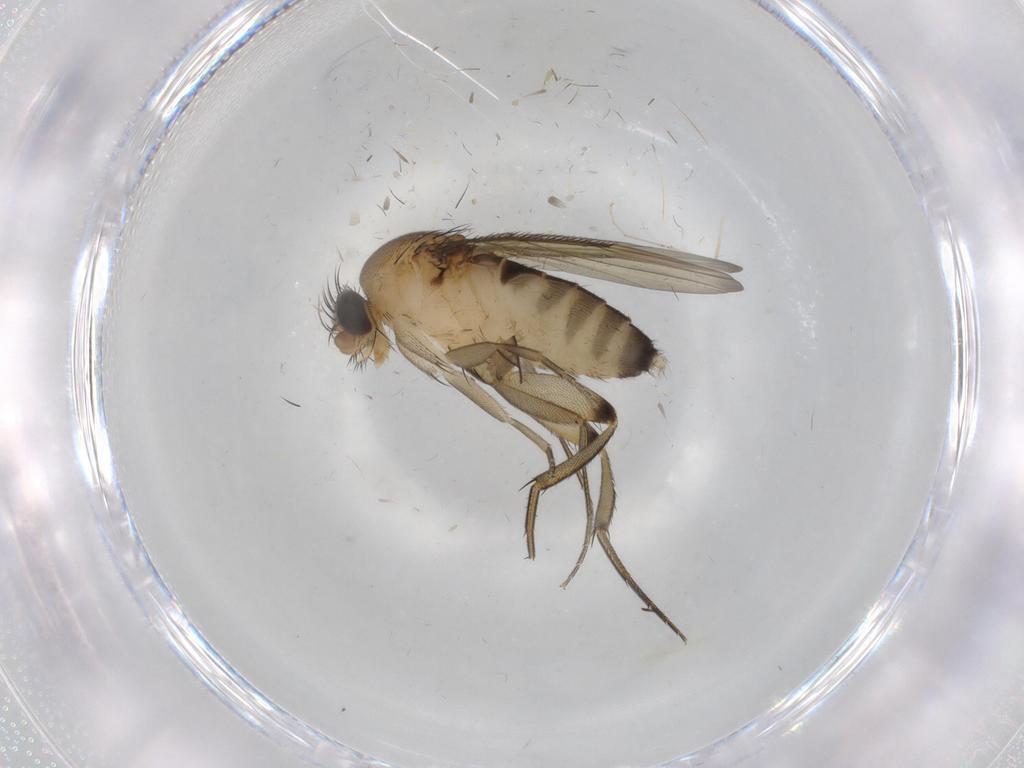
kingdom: Animalia
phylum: Arthropoda
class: Insecta
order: Diptera
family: Phoridae
